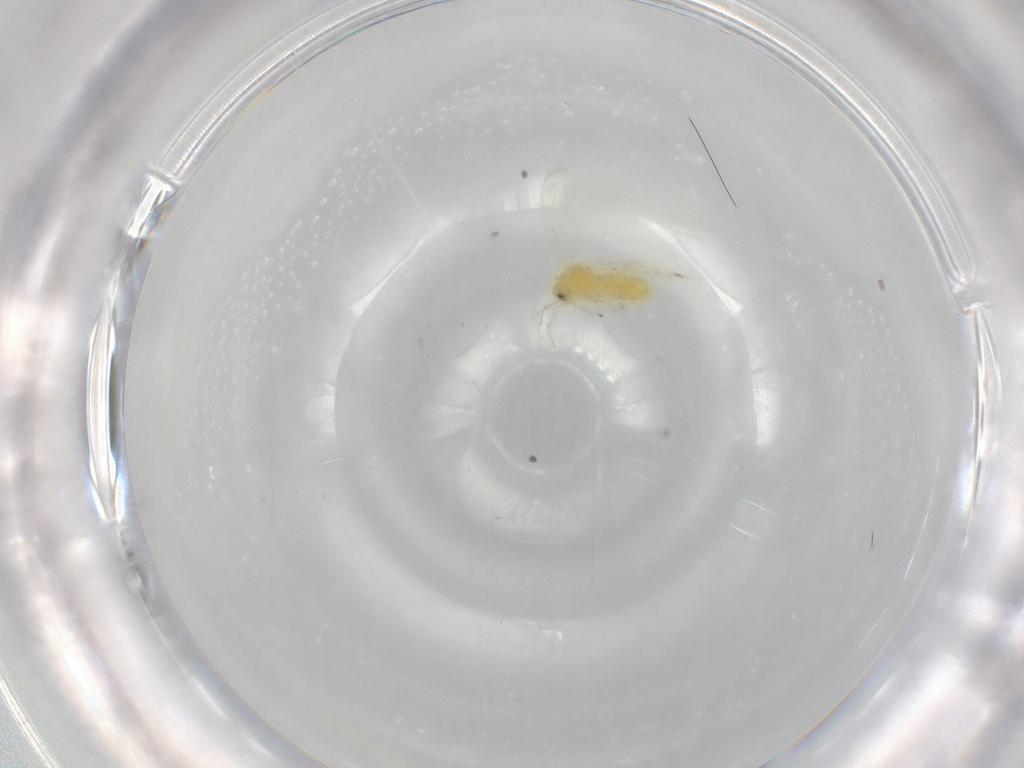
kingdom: Animalia
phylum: Arthropoda
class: Insecta
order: Hemiptera
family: Aleyrodidae
